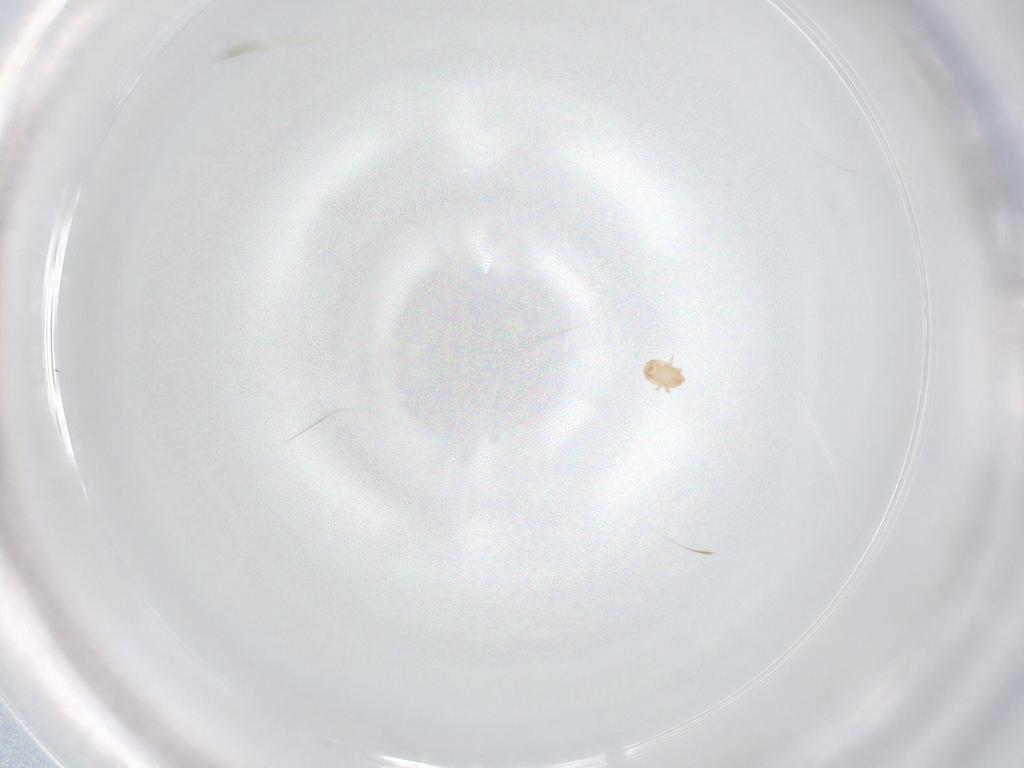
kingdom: Animalia
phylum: Arthropoda
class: Arachnida
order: Mesostigmata
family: Ascidae
